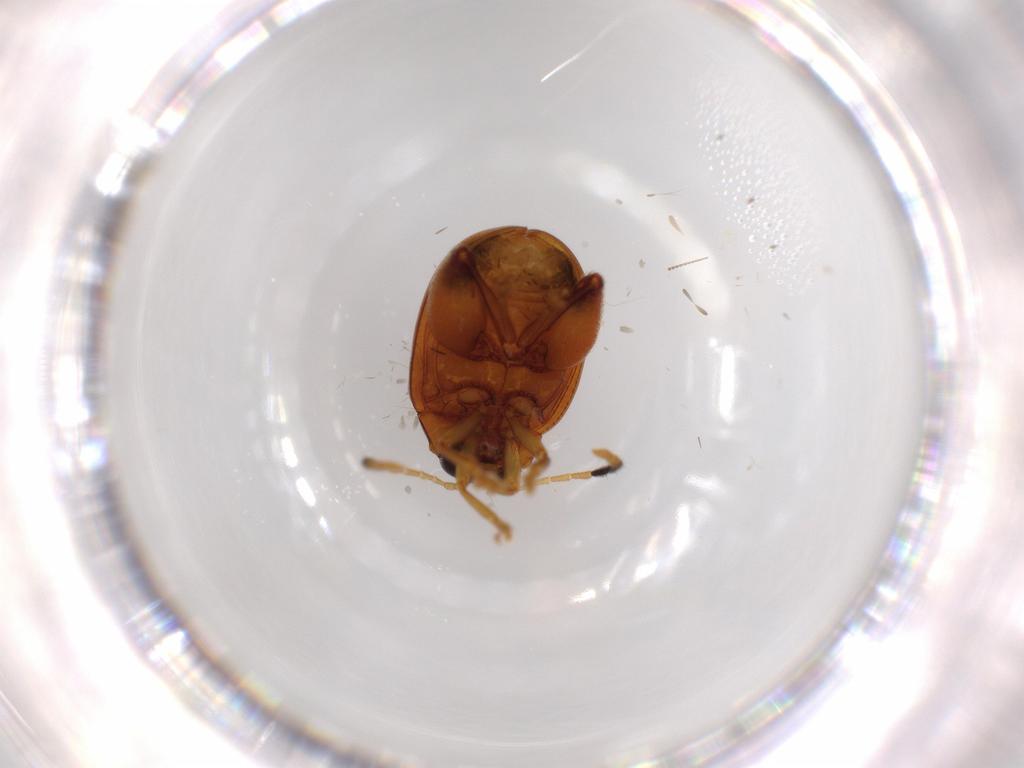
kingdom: Animalia
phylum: Arthropoda
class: Insecta
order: Coleoptera
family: Chrysomelidae
